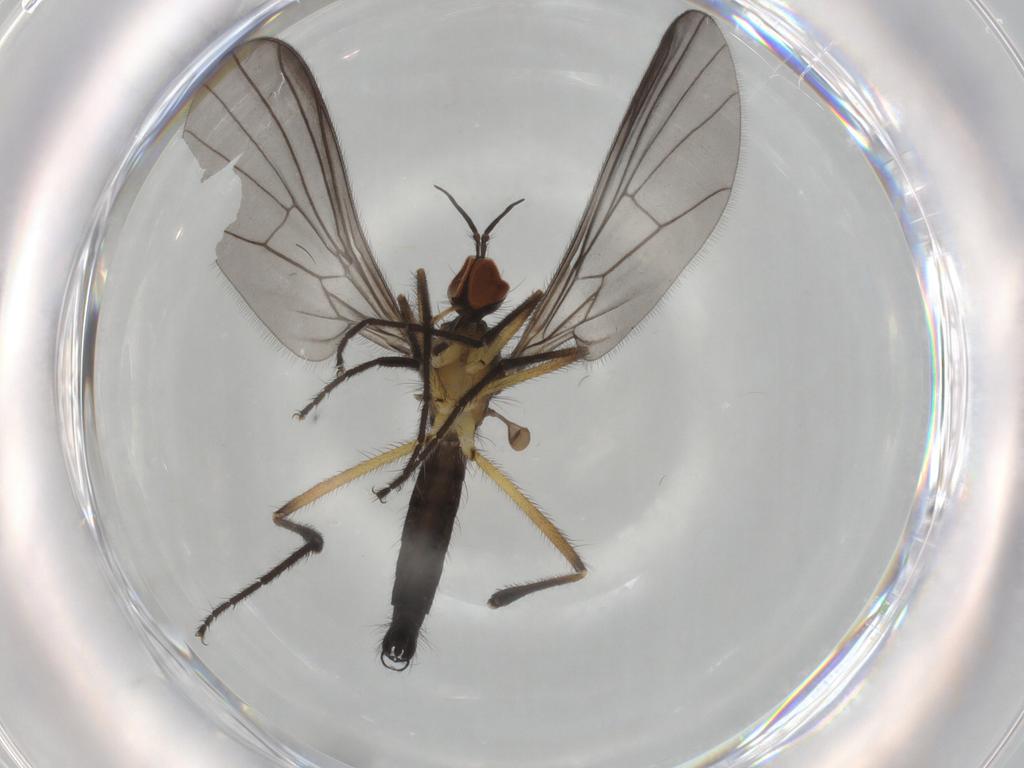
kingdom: Animalia
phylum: Arthropoda
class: Insecta
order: Diptera
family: Empididae
